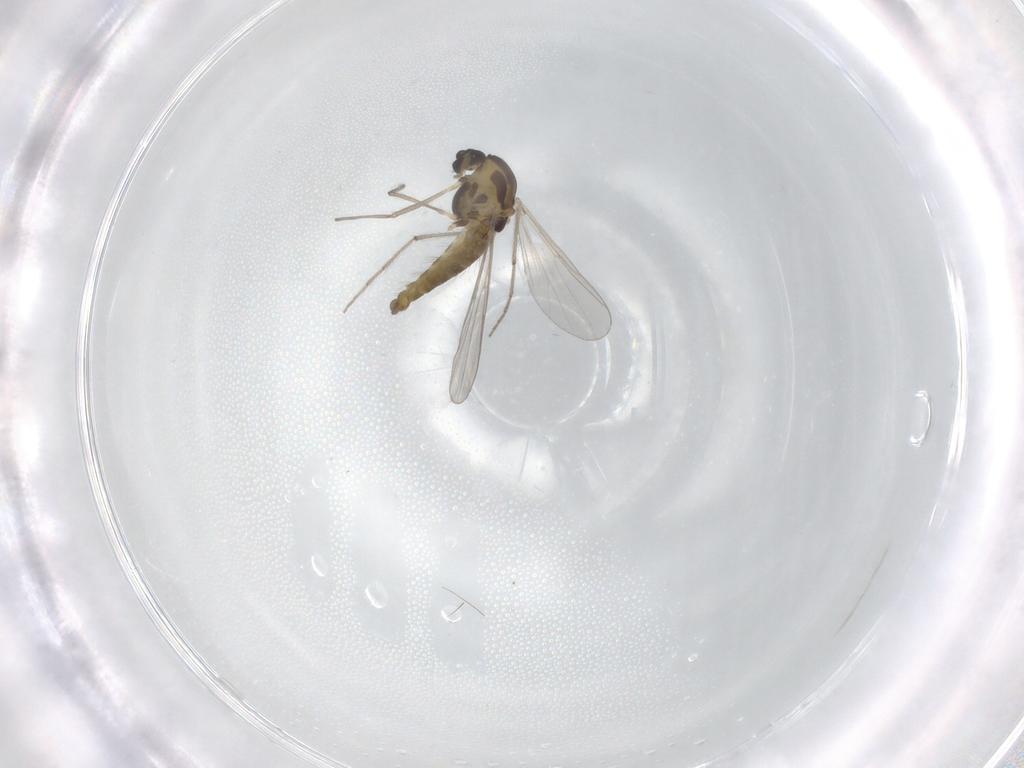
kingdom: Animalia
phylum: Arthropoda
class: Insecta
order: Diptera
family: Chironomidae
